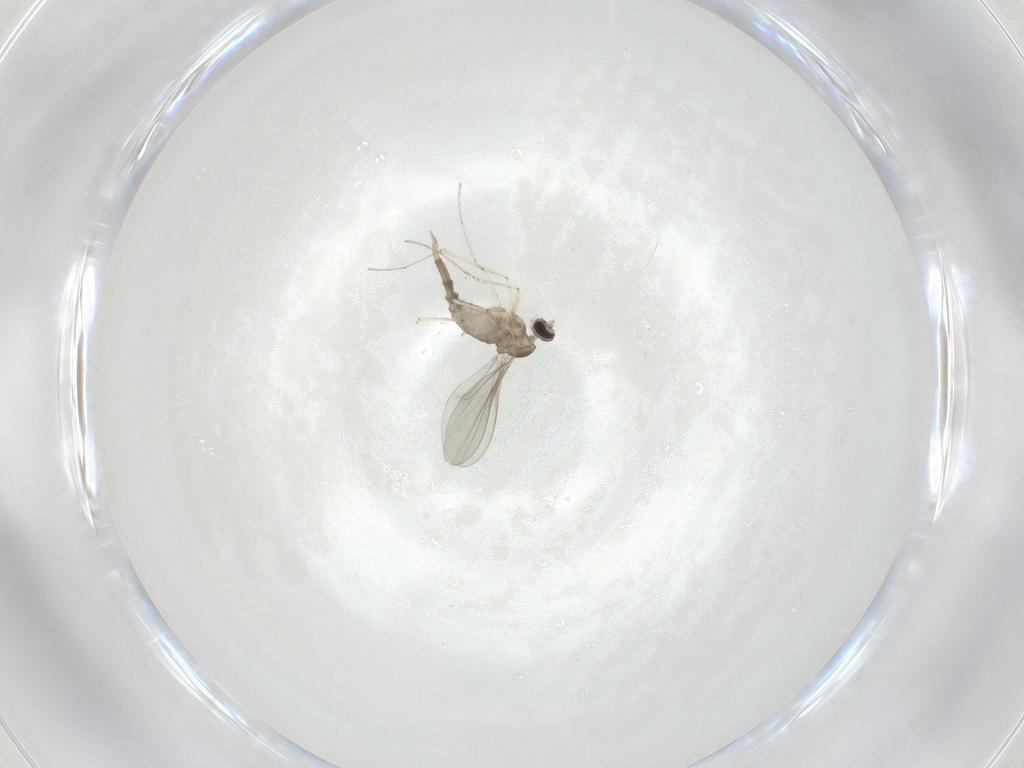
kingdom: Animalia
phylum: Arthropoda
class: Insecta
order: Diptera
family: Cecidomyiidae
